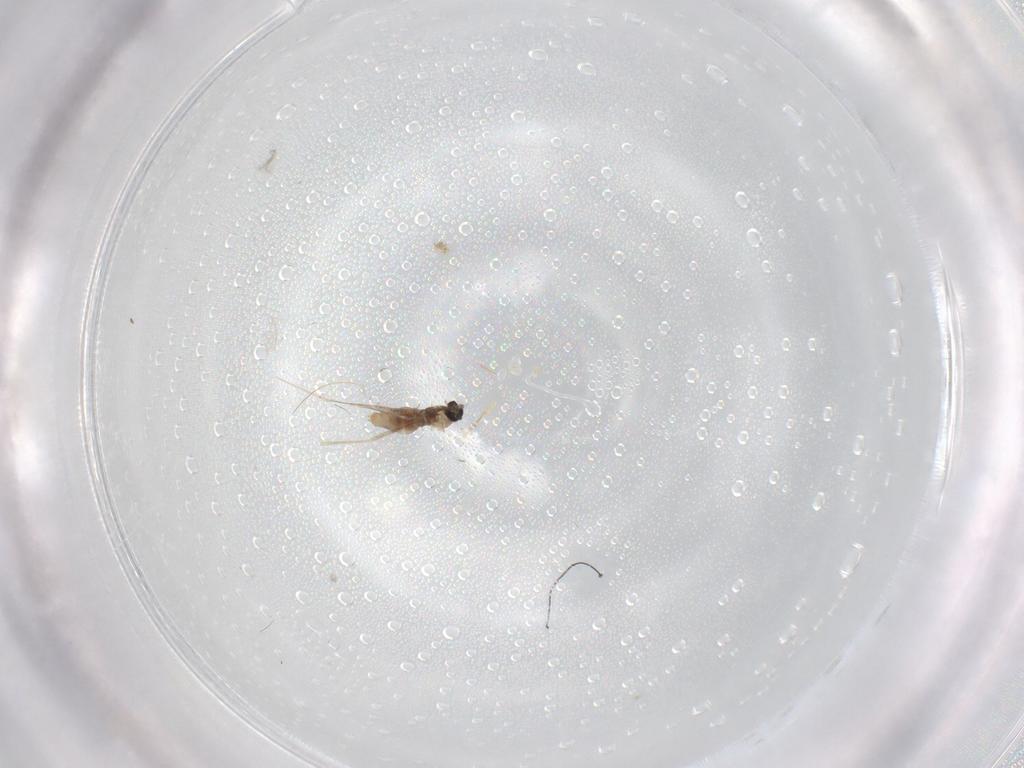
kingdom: Animalia
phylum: Arthropoda
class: Insecta
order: Diptera
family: Cecidomyiidae
